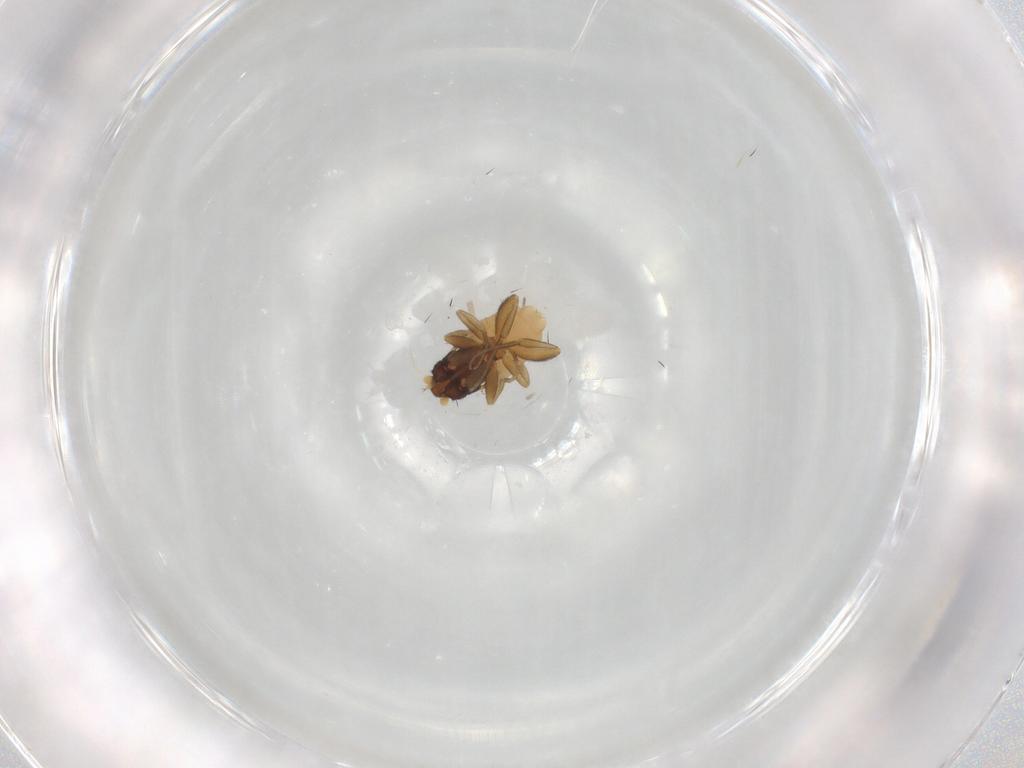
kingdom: Animalia
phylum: Arthropoda
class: Insecta
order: Diptera
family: Phoridae
